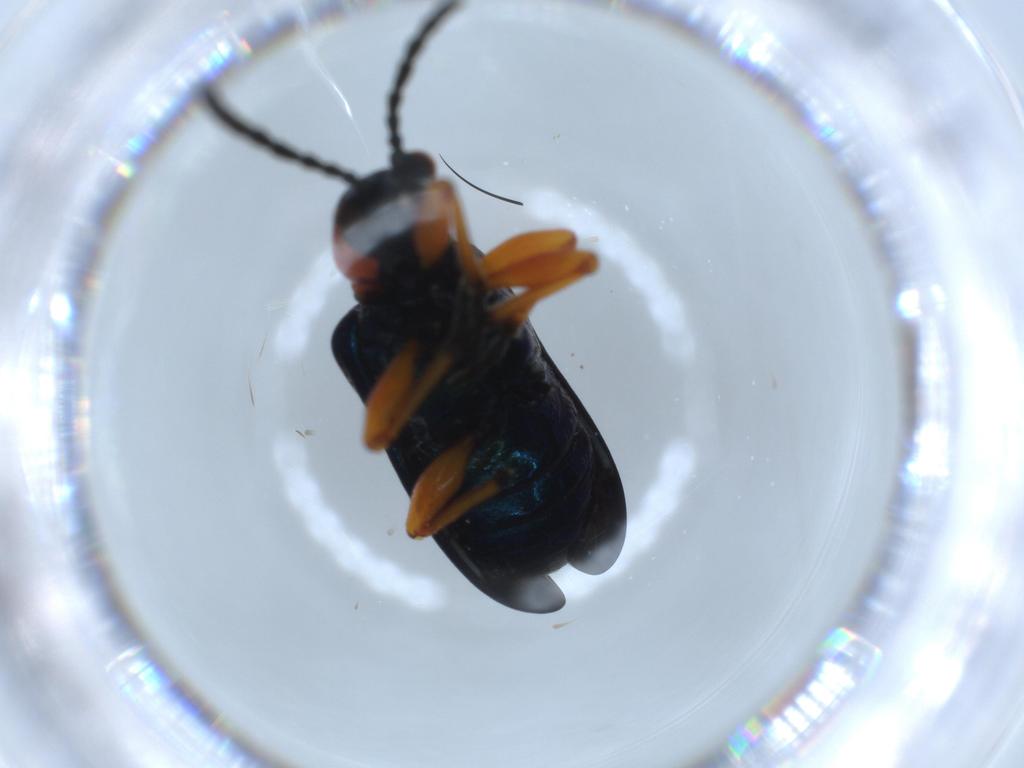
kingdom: Animalia
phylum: Arthropoda
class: Insecta
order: Coleoptera
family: Chrysomelidae
